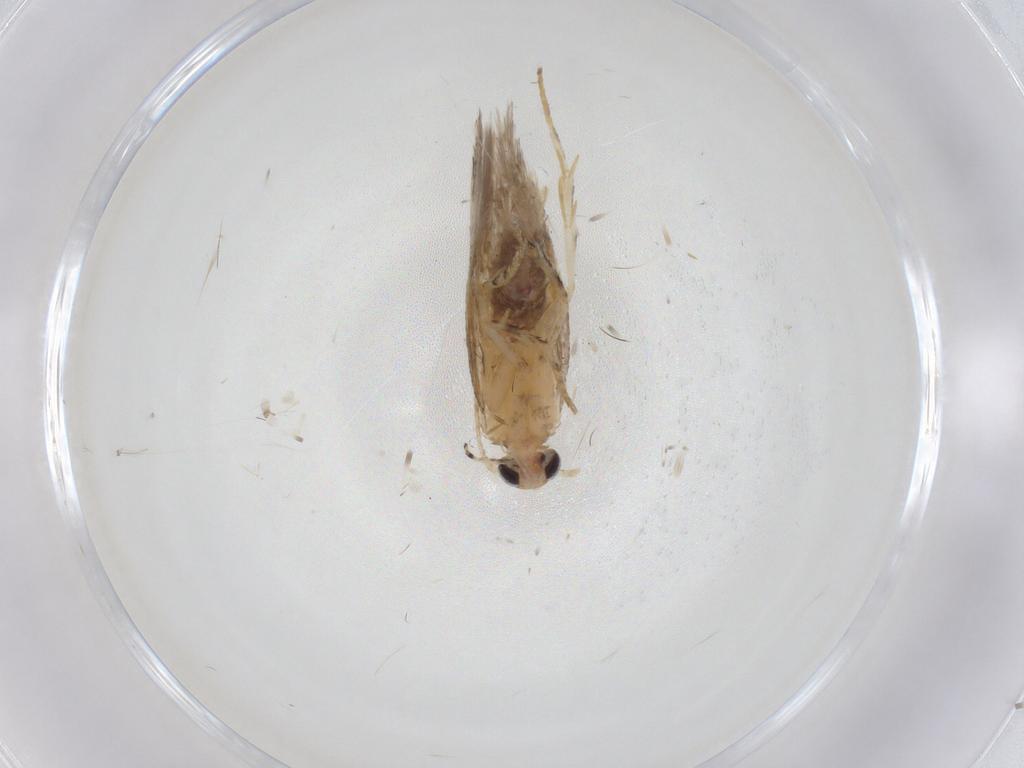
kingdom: Animalia
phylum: Arthropoda
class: Insecta
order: Lepidoptera
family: Gelechiidae
